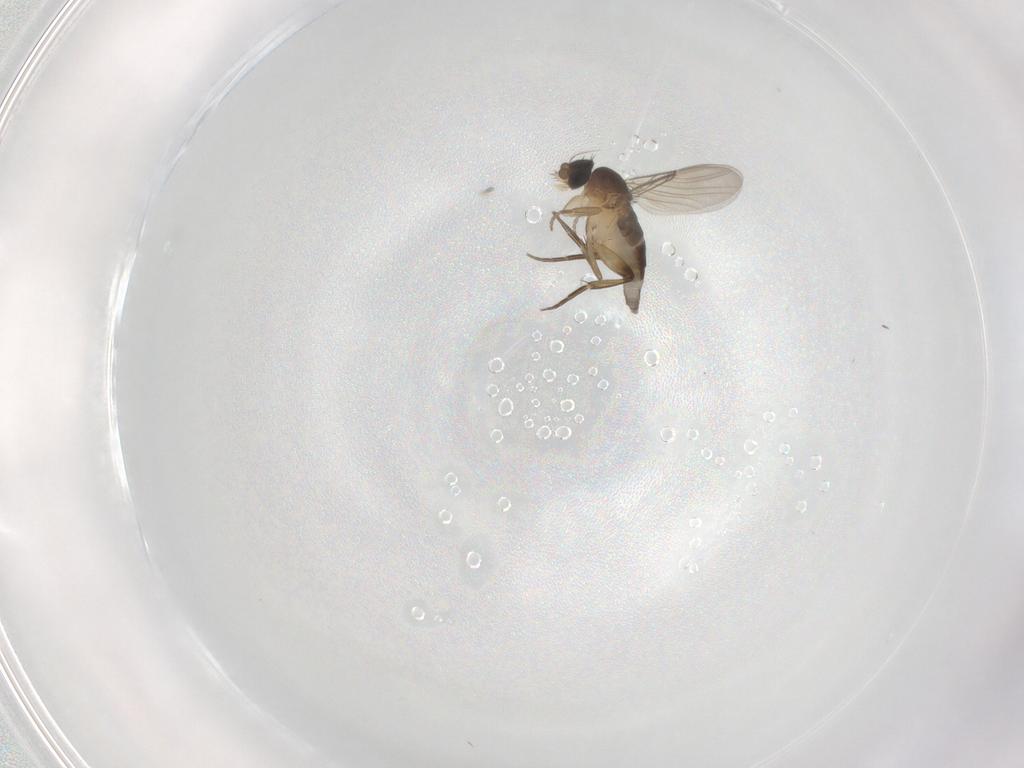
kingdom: Animalia
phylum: Arthropoda
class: Insecta
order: Diptera
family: Phoridae
